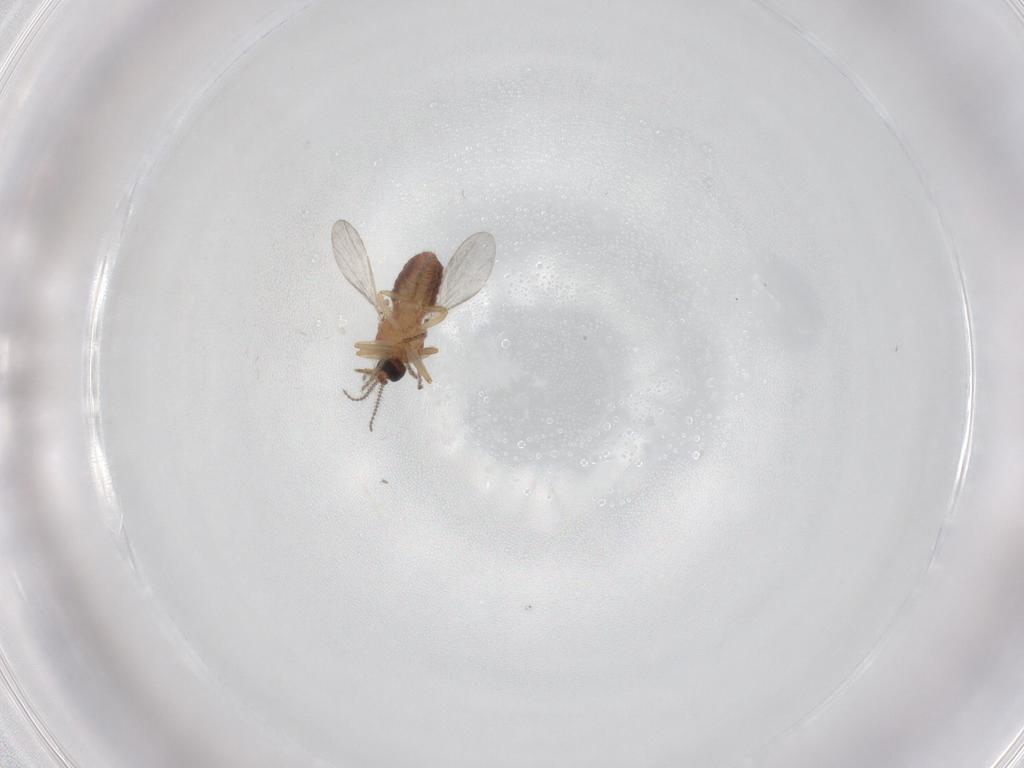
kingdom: Animalia
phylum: Arthropoda
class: Insecta
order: Diptera
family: Ceratopogonidae
